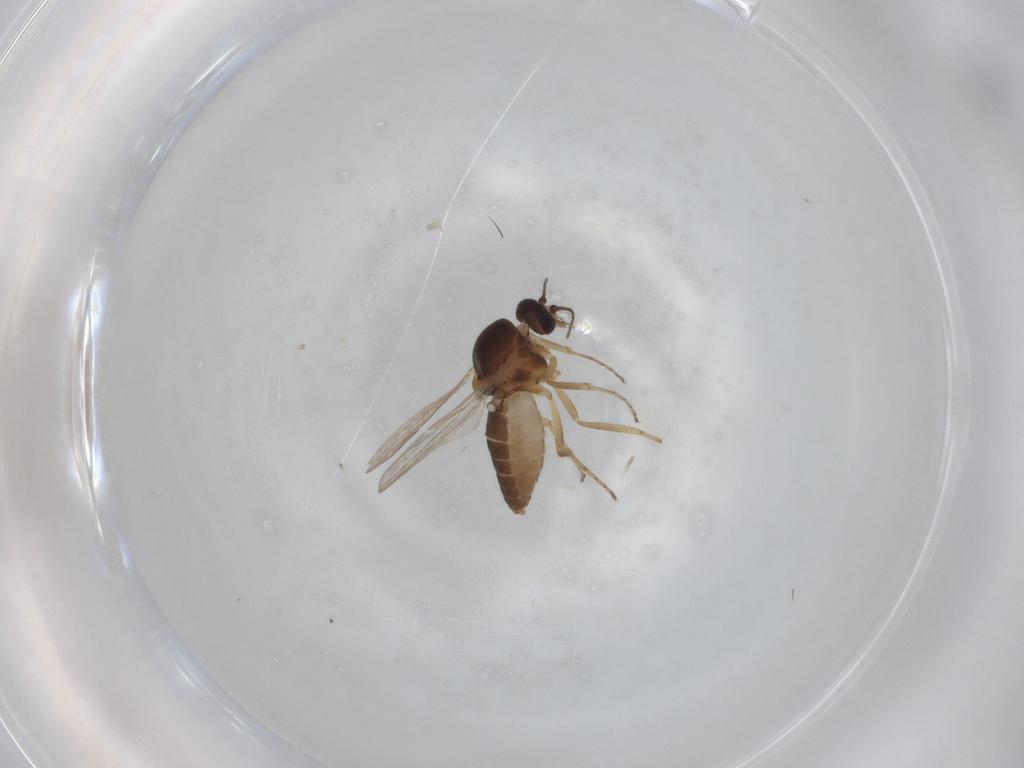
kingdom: Animalia
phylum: Arthropoda
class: Insecta
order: Diptera
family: Ceratopogonidae
